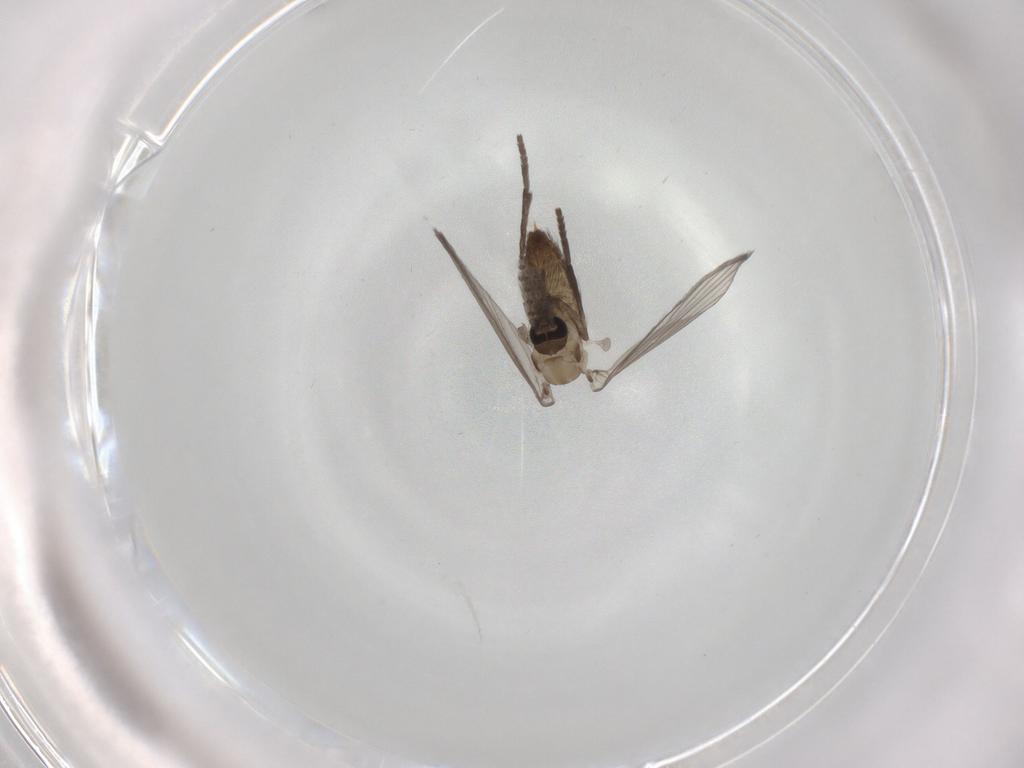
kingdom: Animalia
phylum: Arthropoda
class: Insecta
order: Diptera
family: Psychodidae
